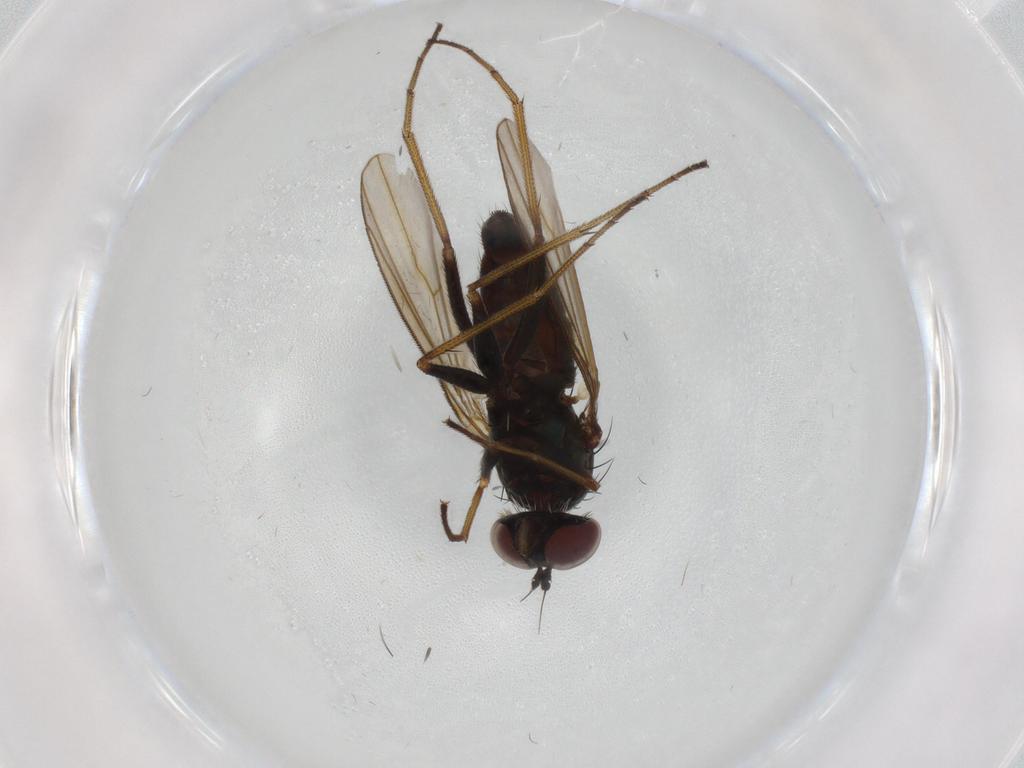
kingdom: Animalia
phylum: Arthropoda
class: Insecta
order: Diptera
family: Dolichopodidae
